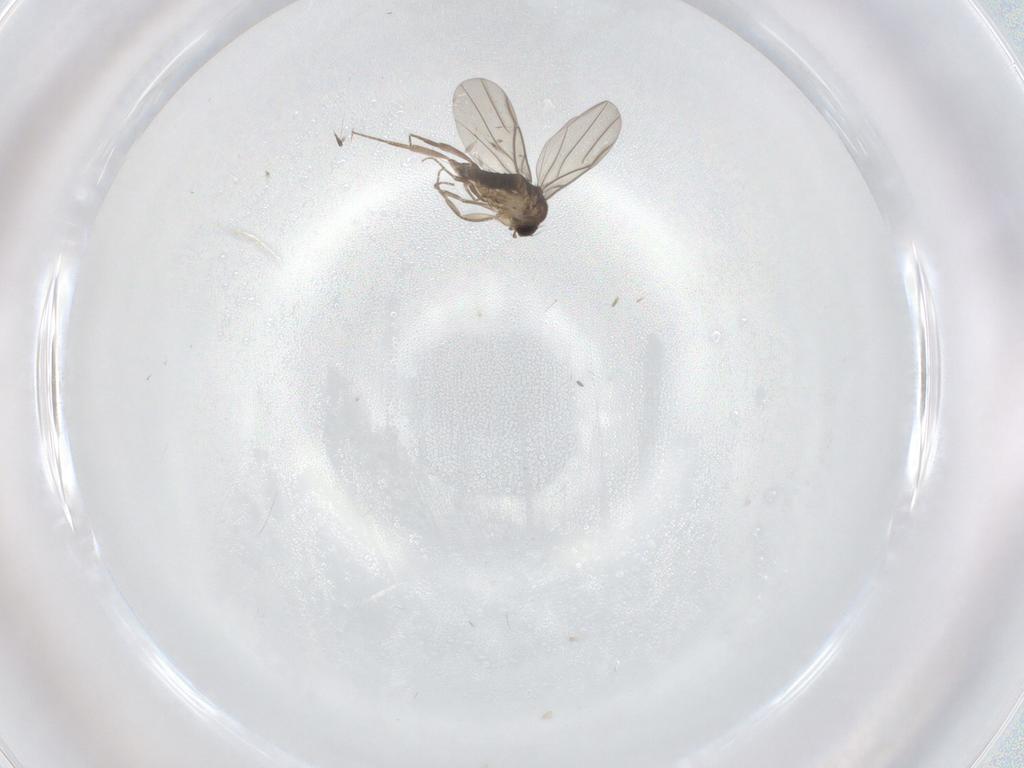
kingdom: Animalia
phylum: Arthropoda
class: Insecta
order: Diptera
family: Phoridae
